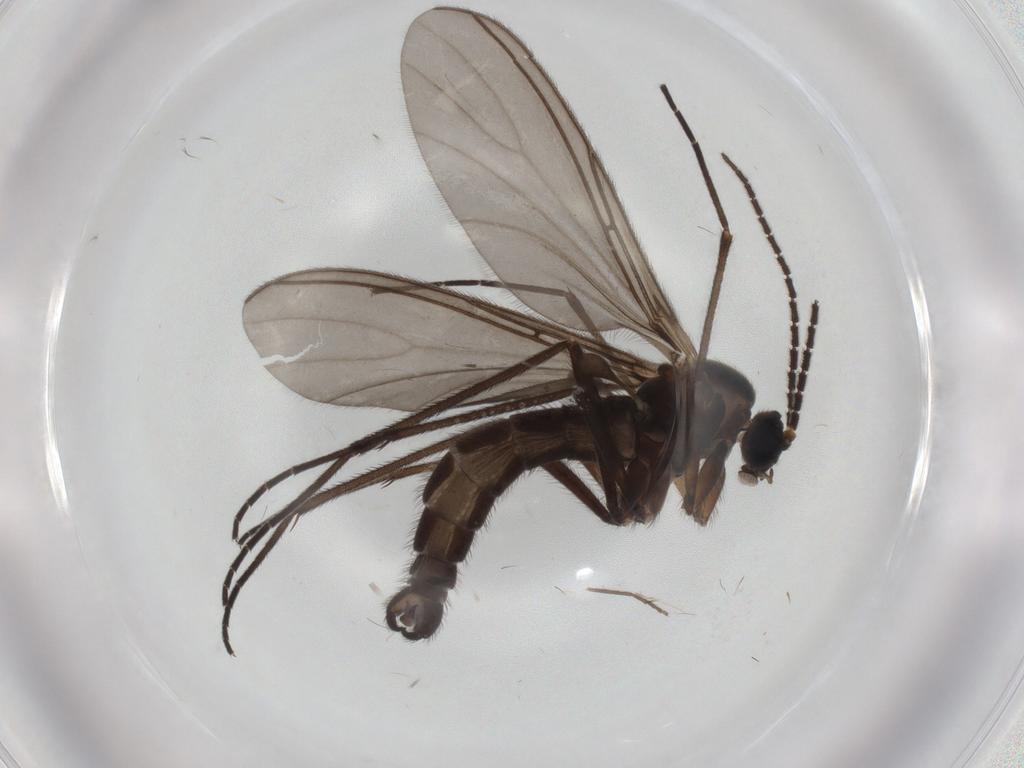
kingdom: Animalia
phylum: Arthropoda
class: Insecta
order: Diptera
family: Sciaridae
